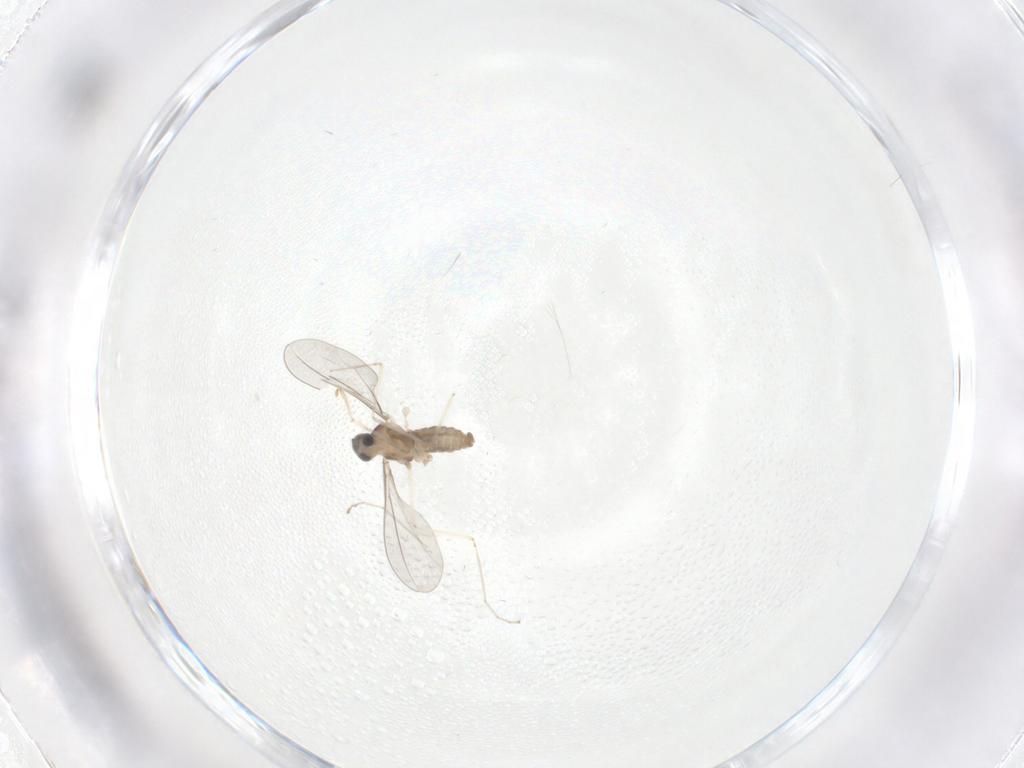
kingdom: Animalia
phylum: Arthropoda
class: Insecta
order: Diptera
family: Cecidomyiidae
